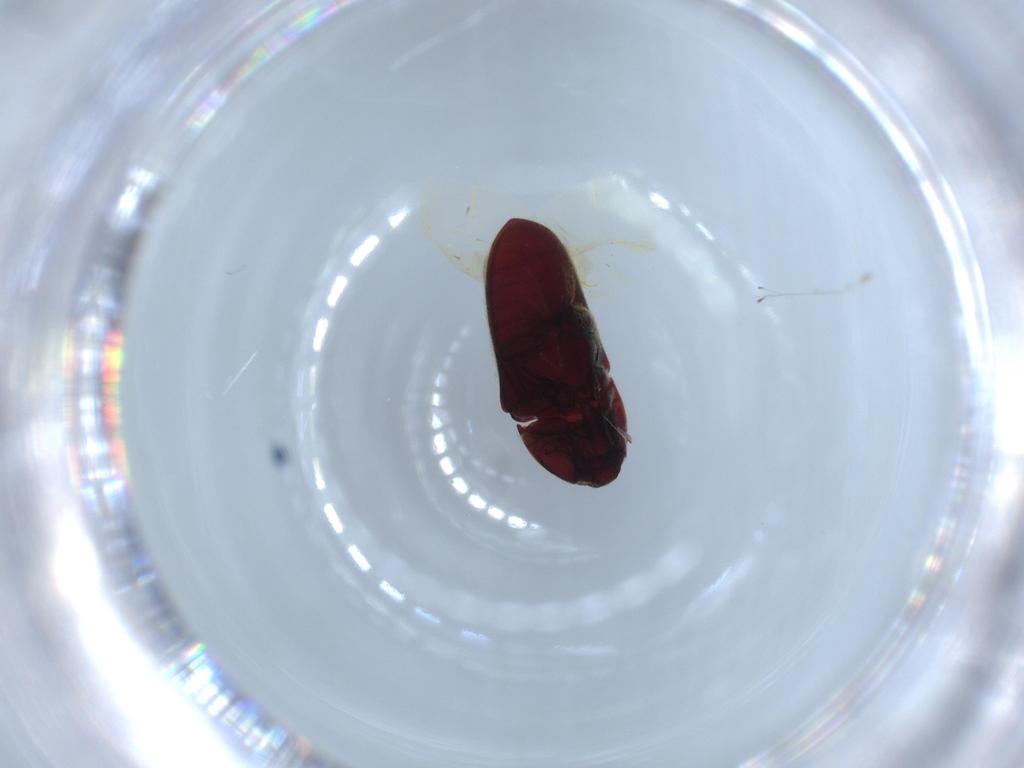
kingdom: Animalia
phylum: Arthropoda
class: Insecta
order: Coleoptera
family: Throscidae
